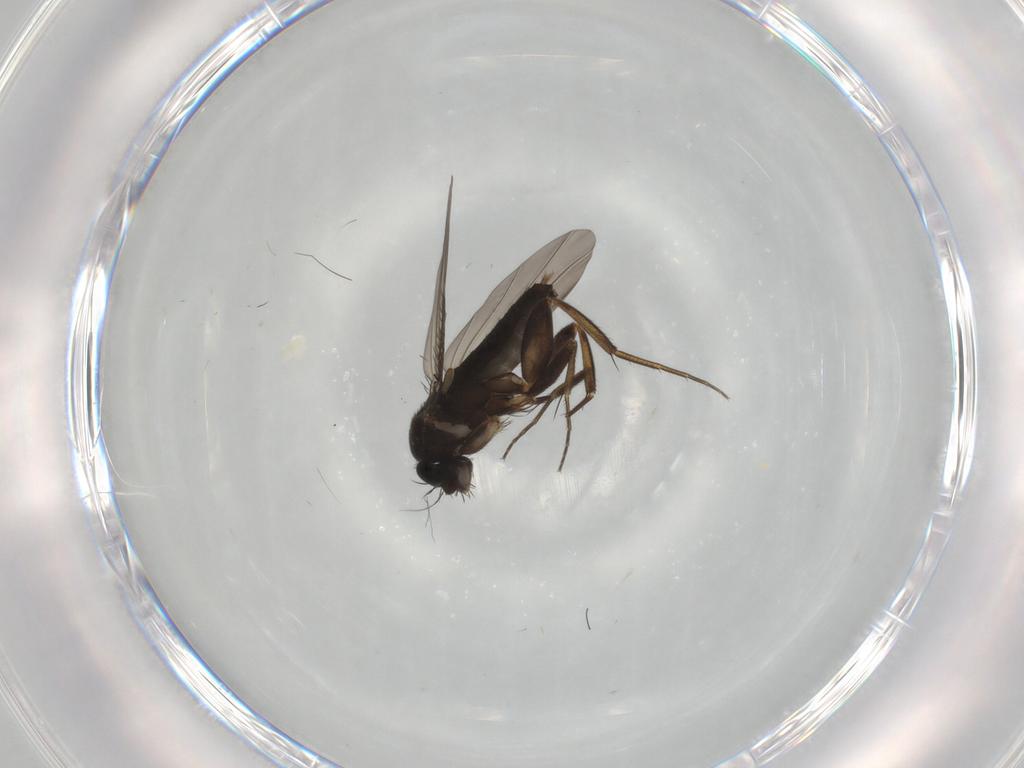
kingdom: Animalia
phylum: Arthropoda
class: Insecta
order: Diptera
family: Phoridae
